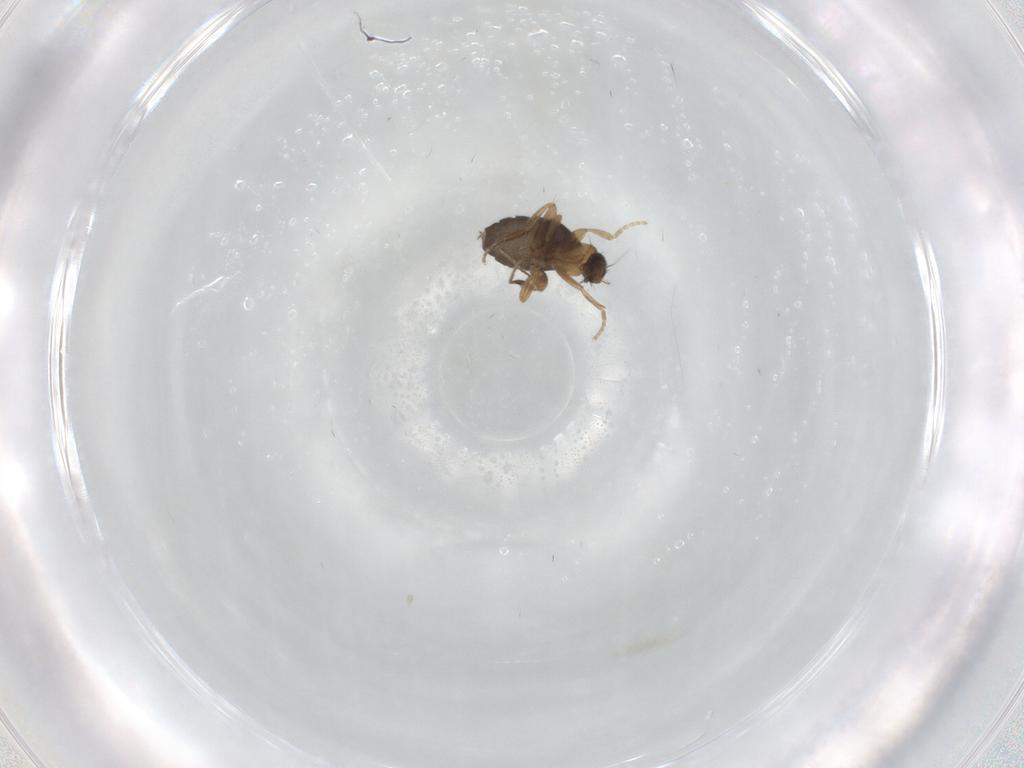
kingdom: Animalia
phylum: Arthropoda
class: Insecta
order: Diptera
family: Phoridae
